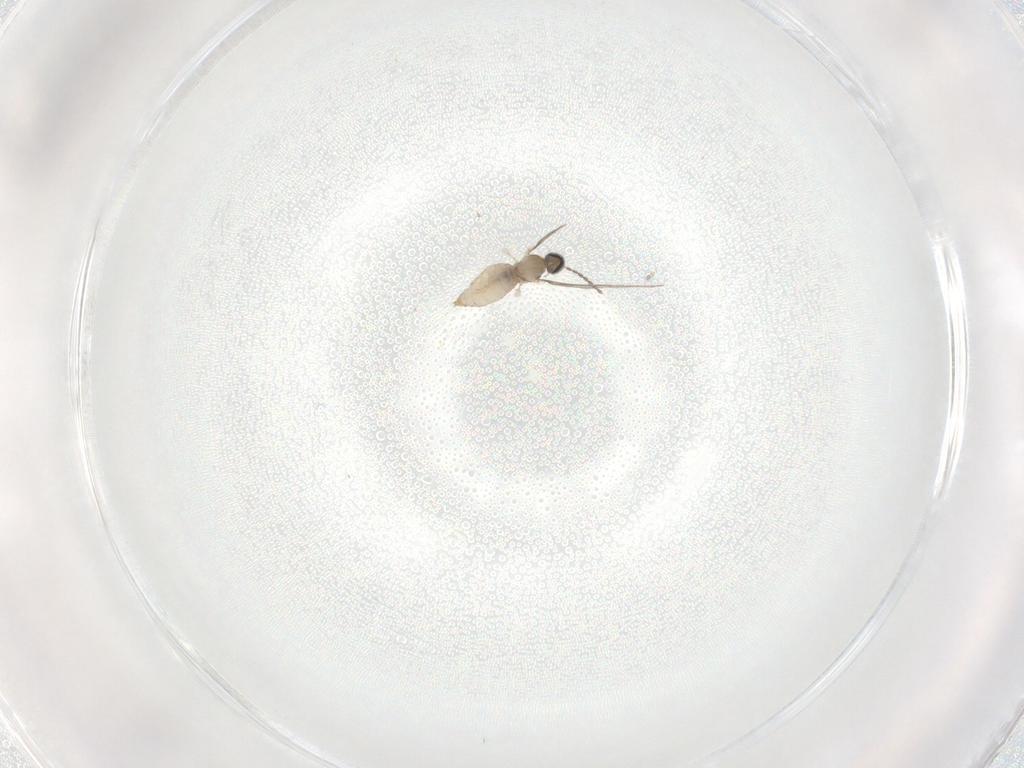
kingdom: Animalia
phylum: Arthropoda
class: Insecta
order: Diptera
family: Cecidomyiidae
